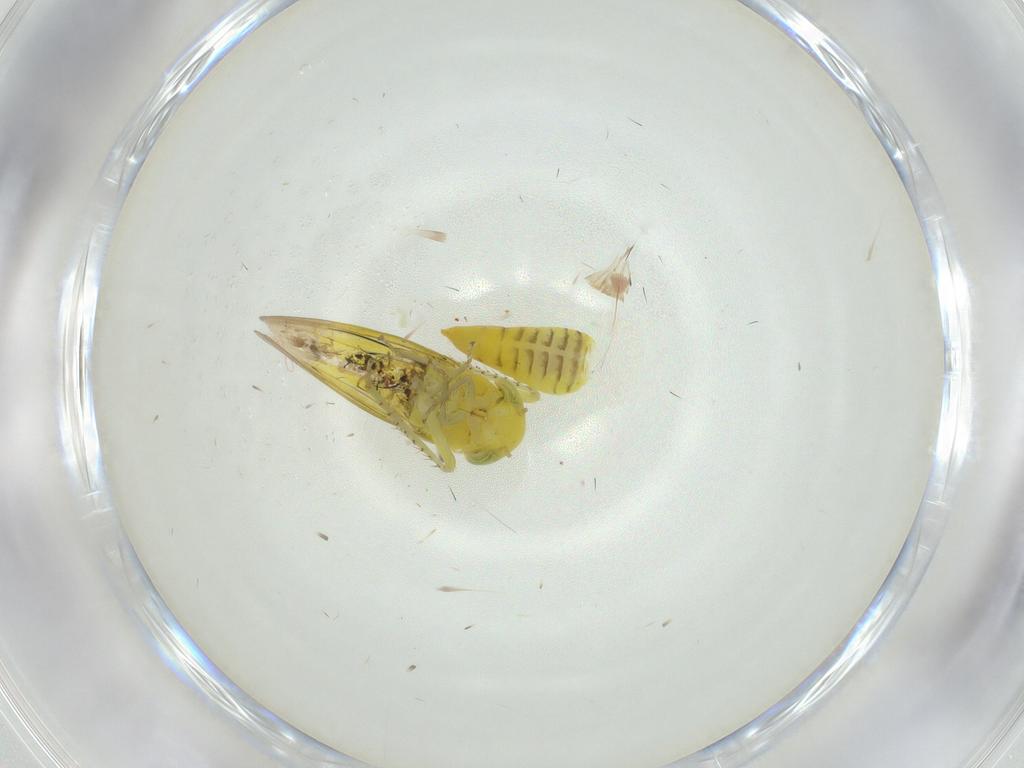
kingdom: Animalia
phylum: Arthropoda
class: Insecta
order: Hemiptera
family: Cicadellidae
